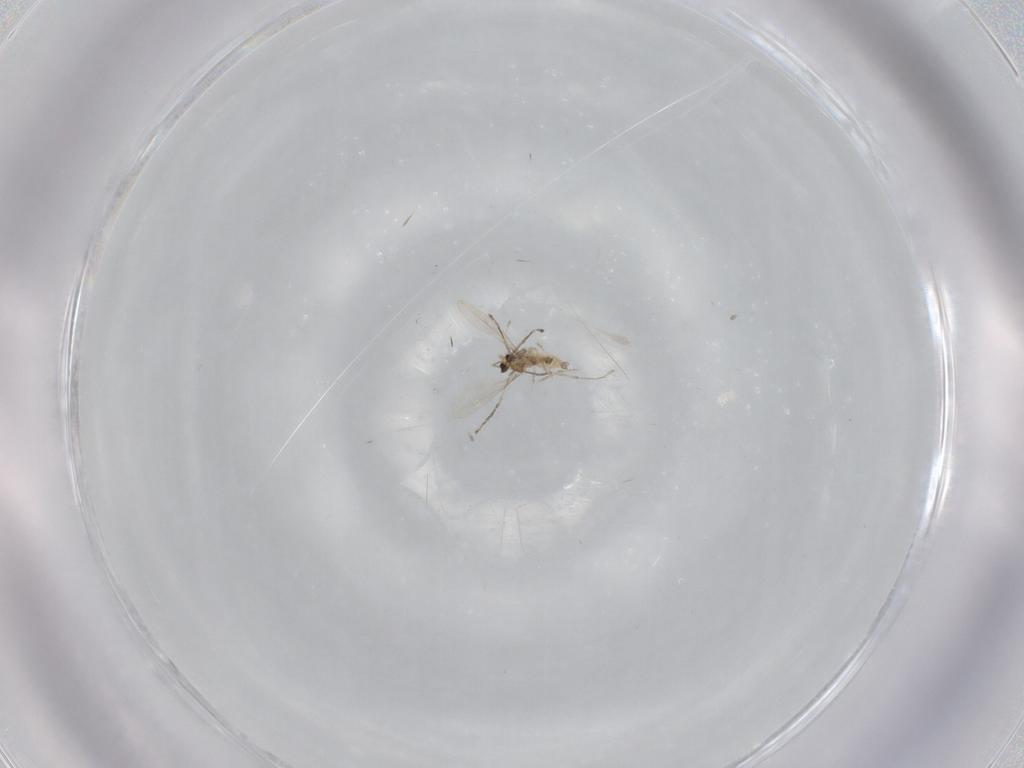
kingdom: Animalia
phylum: Arthropoda
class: Insecta
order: Diptera
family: Cecidomyiidae
